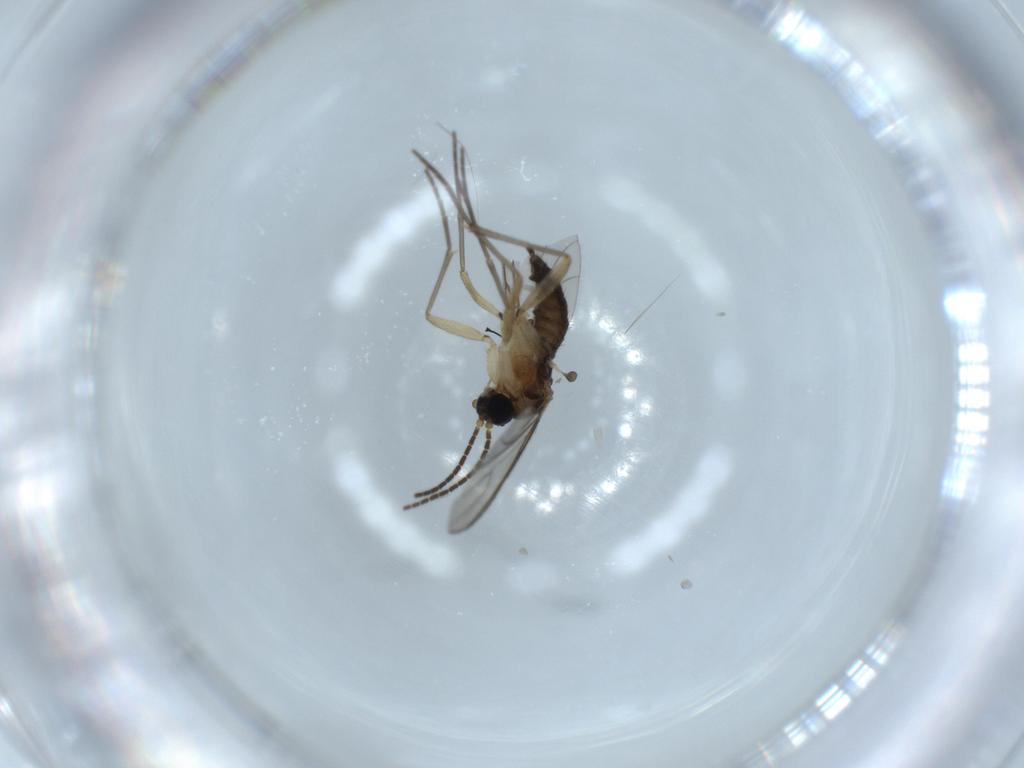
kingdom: Animalia
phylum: Arthropoda
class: Insecta
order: Diptera
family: Sciaridae
